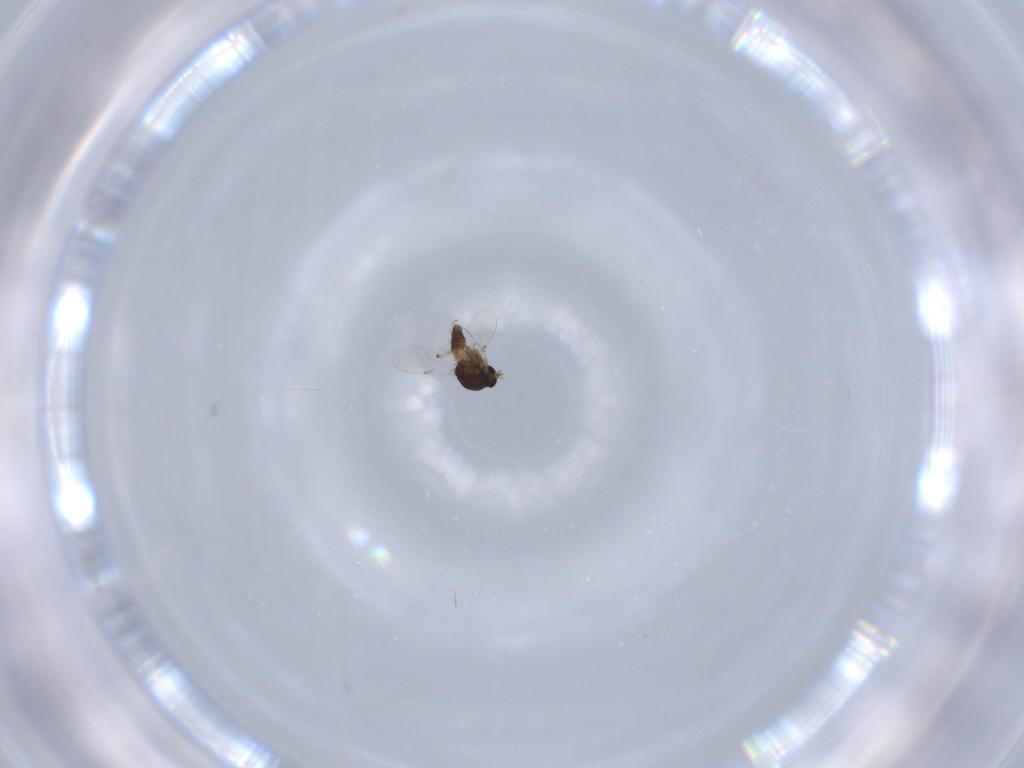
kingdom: Animalia
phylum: Arthropoda
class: Insecta
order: Diptera
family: Ceratopogonidae
